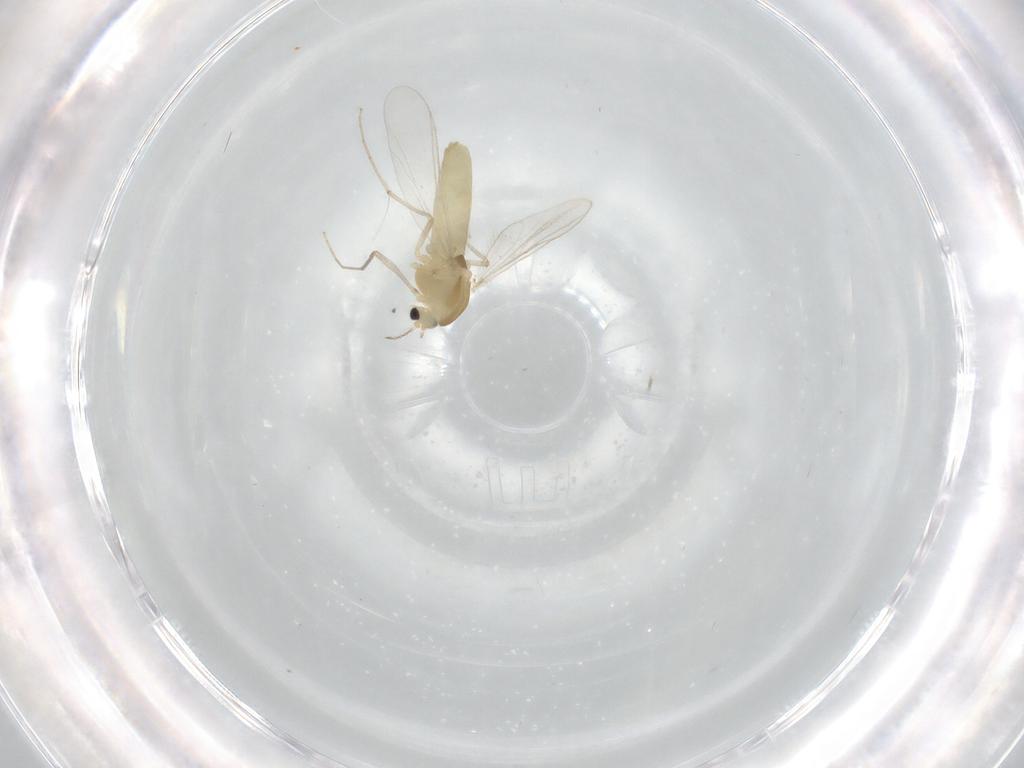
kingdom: Animalia
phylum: Arthropoda
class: Insecta
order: Diptera
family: Chironomidae
